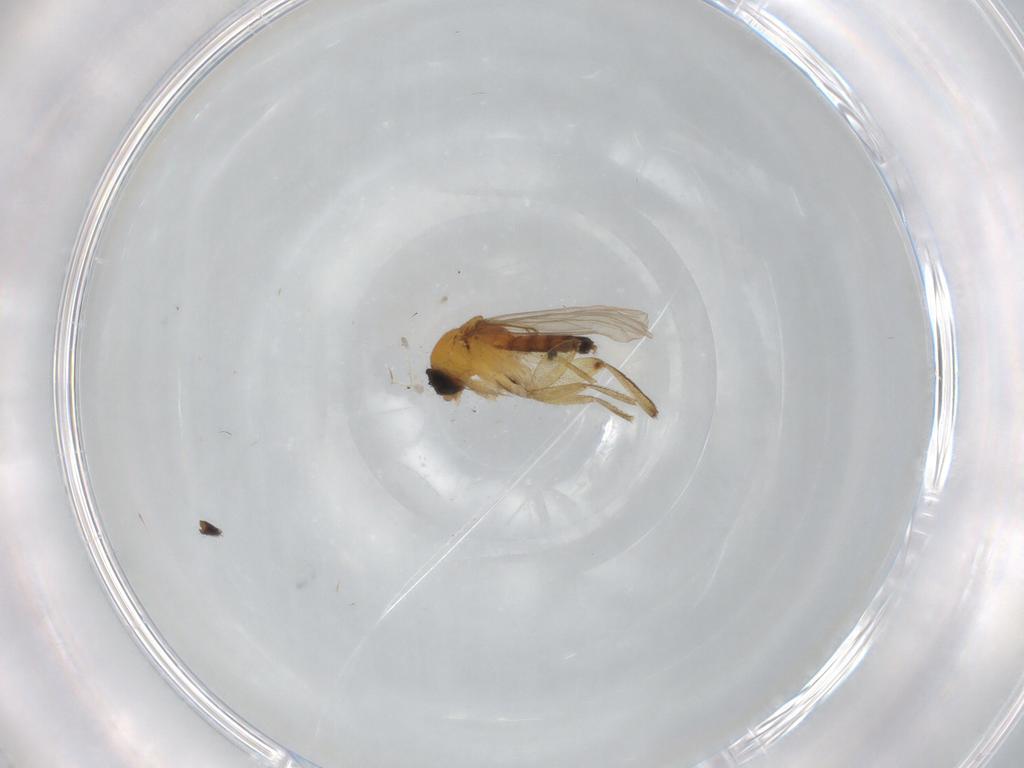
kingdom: Animalia
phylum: Arthropoda
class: Insecta
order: Diptera
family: Phoridae
